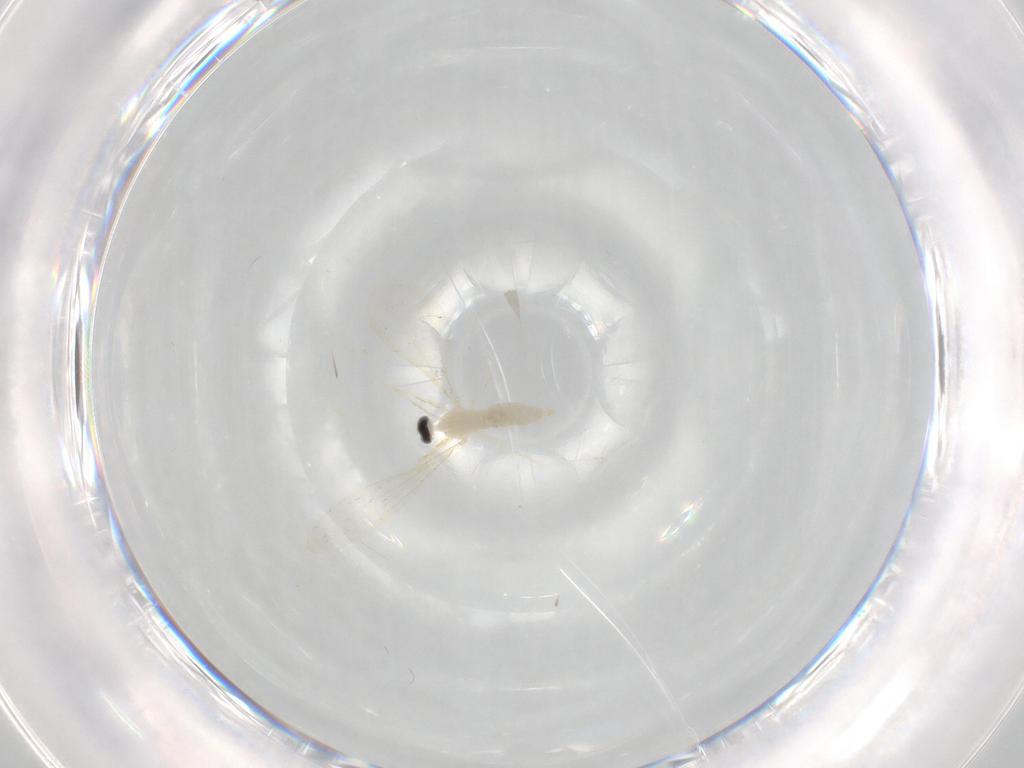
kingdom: Animalia
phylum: Arthropoda
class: Insecta
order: Diptera
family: Cecidomyiidae
